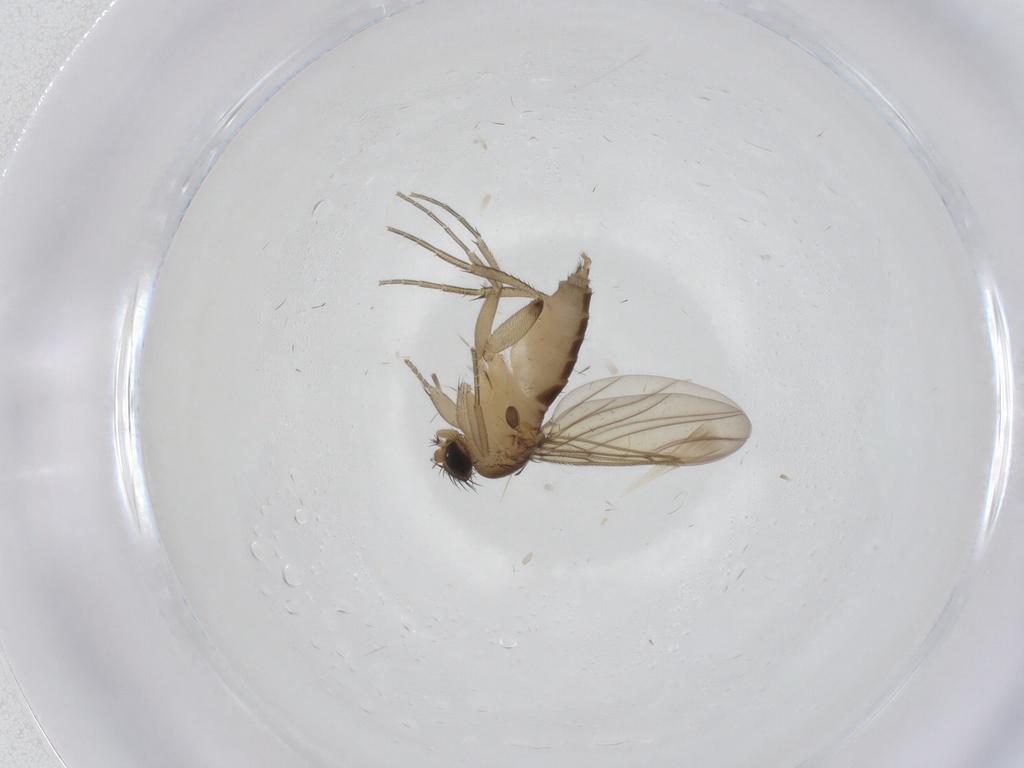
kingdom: Animalia
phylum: Arthropoda
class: Insecta
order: Diptera
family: Phoridae
